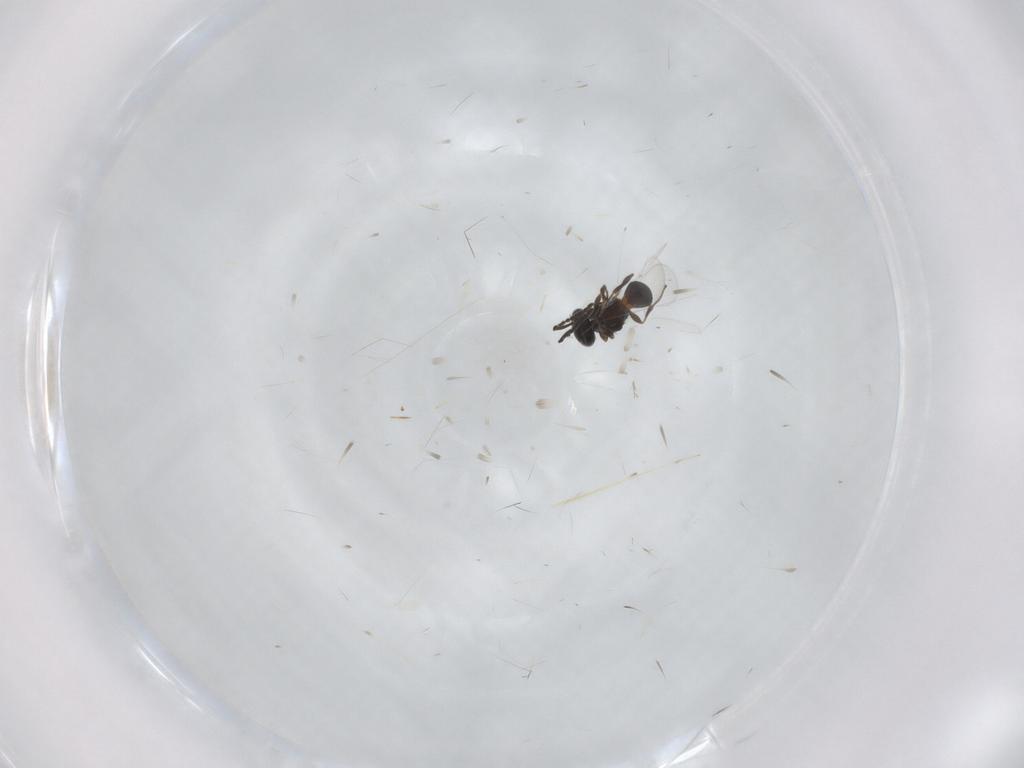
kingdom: Animalia
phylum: Arthropoda
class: Insecta
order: Hymenoptera
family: Platygastridae
